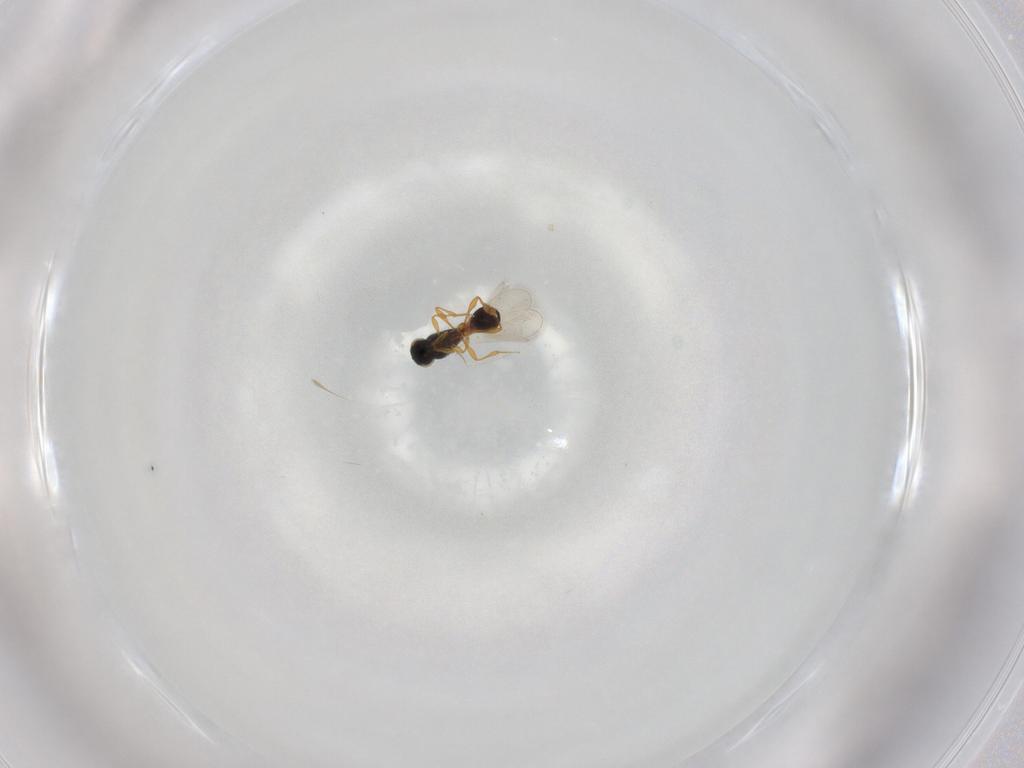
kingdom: Animalia
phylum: Arthropoda
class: Insecta
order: Hymenoptera
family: Platygastridae
